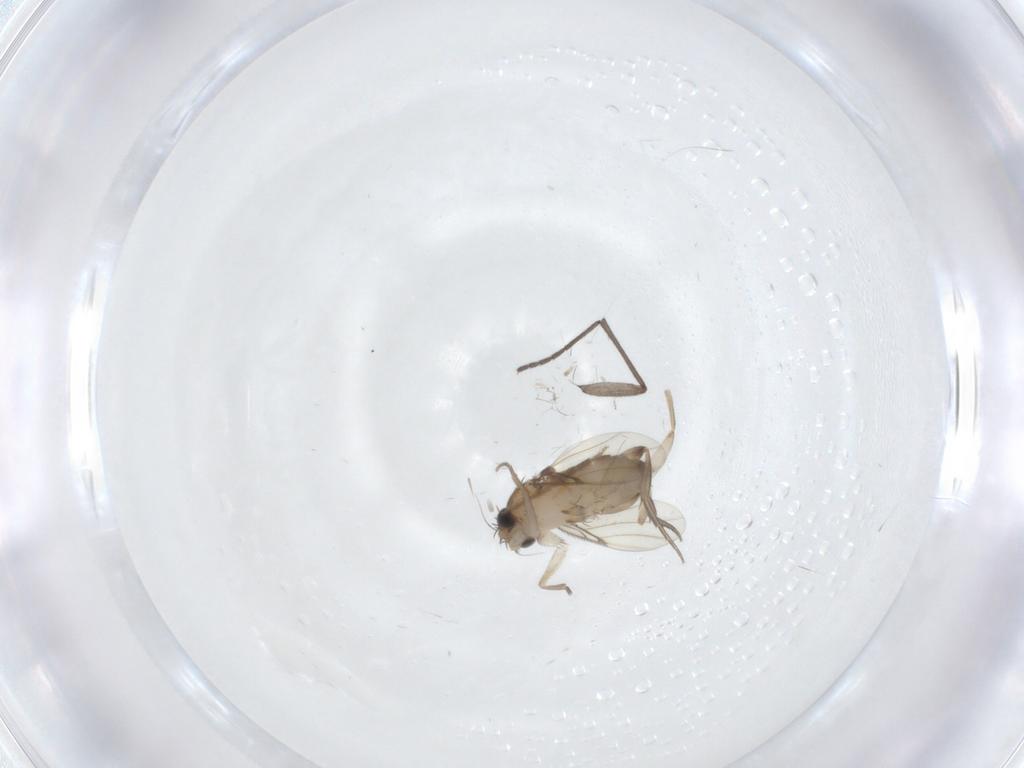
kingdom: Animalia
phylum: Arthropoda
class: Insecta
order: Diptera
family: Phoridae
